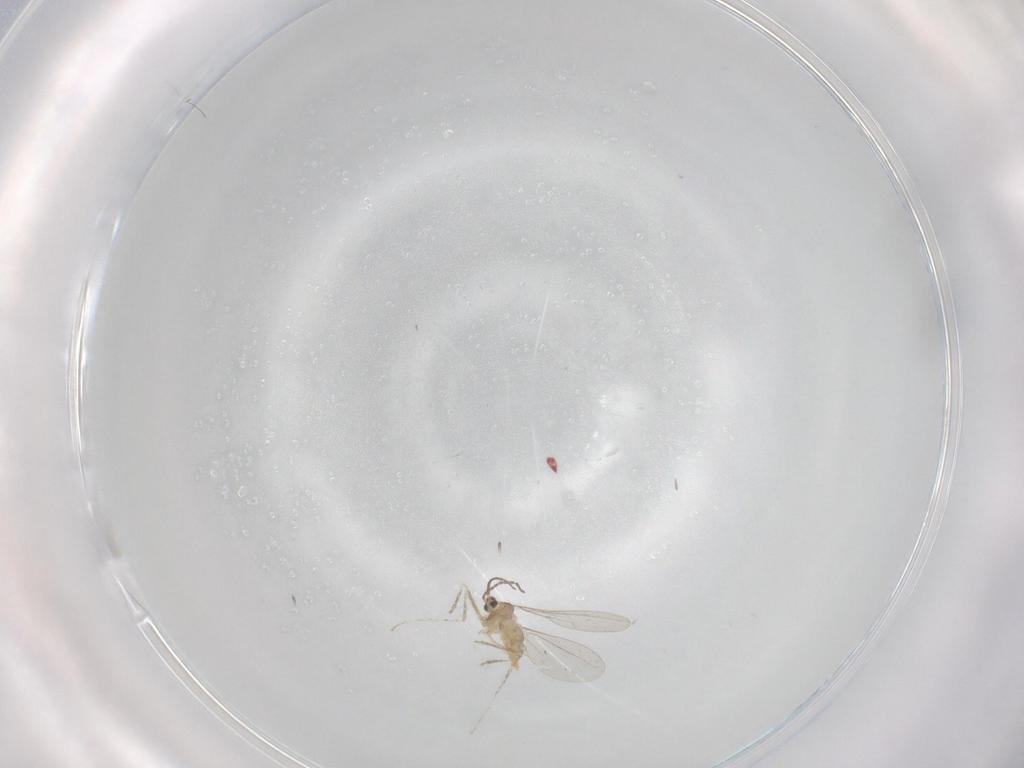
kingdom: Animalia
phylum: Arthropoda
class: Insecta
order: Diptera
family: Cecidomyiidae
